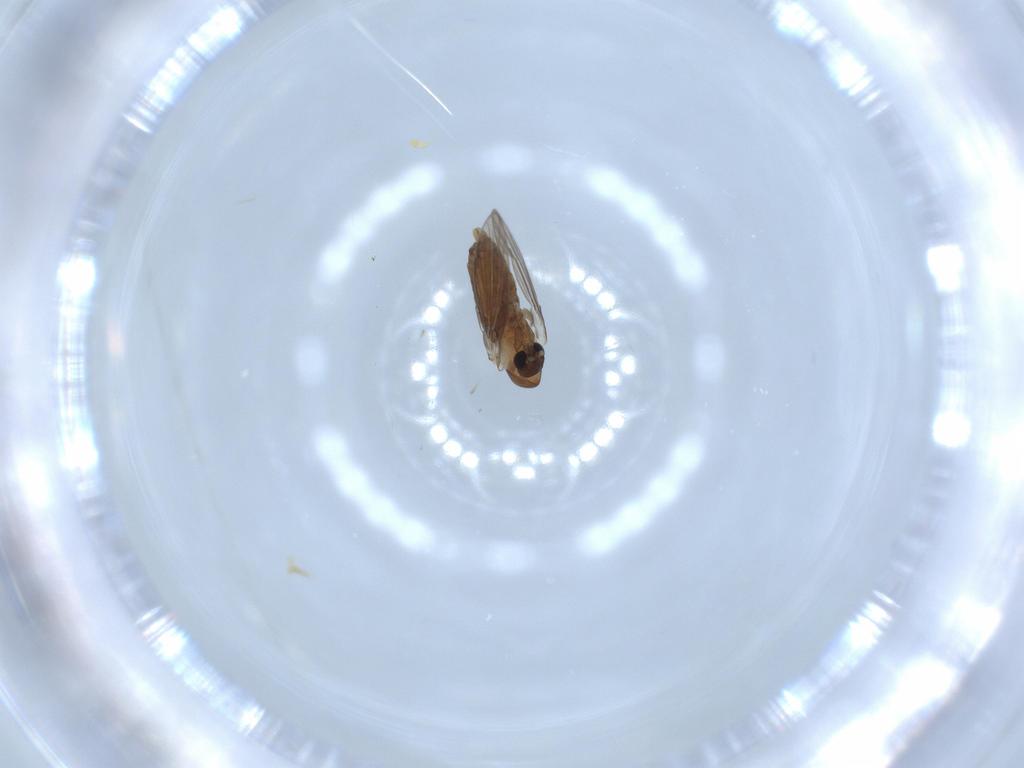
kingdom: Animalia
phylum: Arthropoda
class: Insecta
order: Diptera
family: Psychodidae
